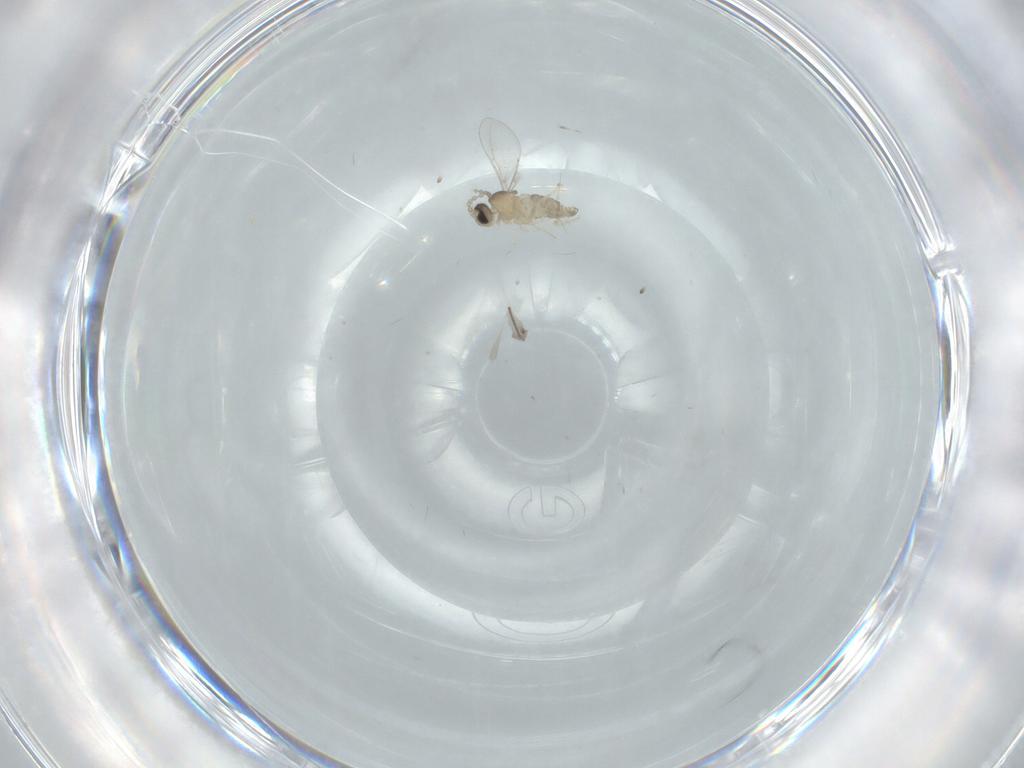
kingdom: Animalia
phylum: Arthropoda
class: Insecta
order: Diptera
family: Cecidomyiidae
